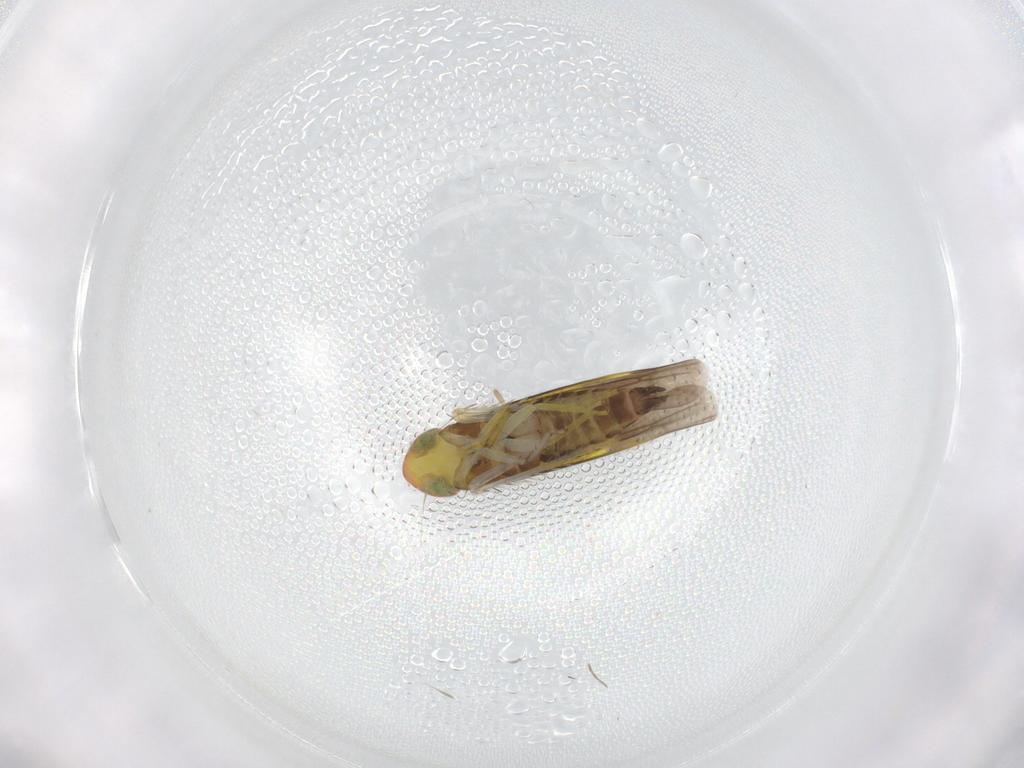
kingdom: Animalia
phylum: Arthropoda
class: Insecta
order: Hemiptera
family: Cicadellidae
